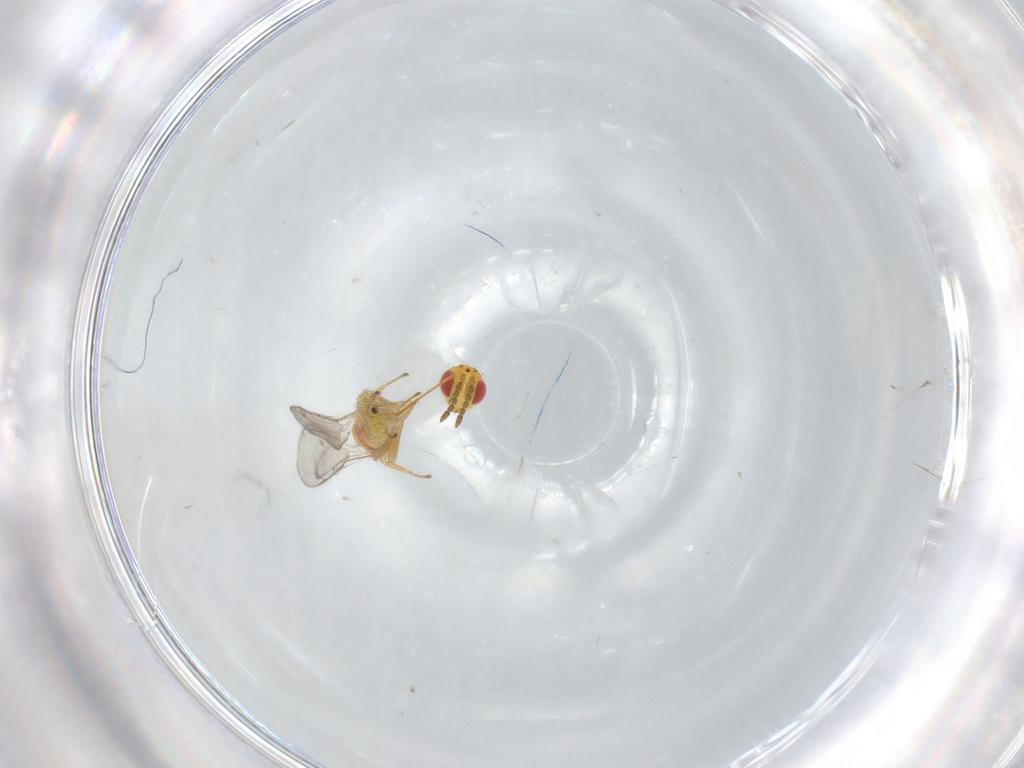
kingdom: Animalia
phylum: Arthropoda
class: Insecta
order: Hymenoptera
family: Eulophidae
